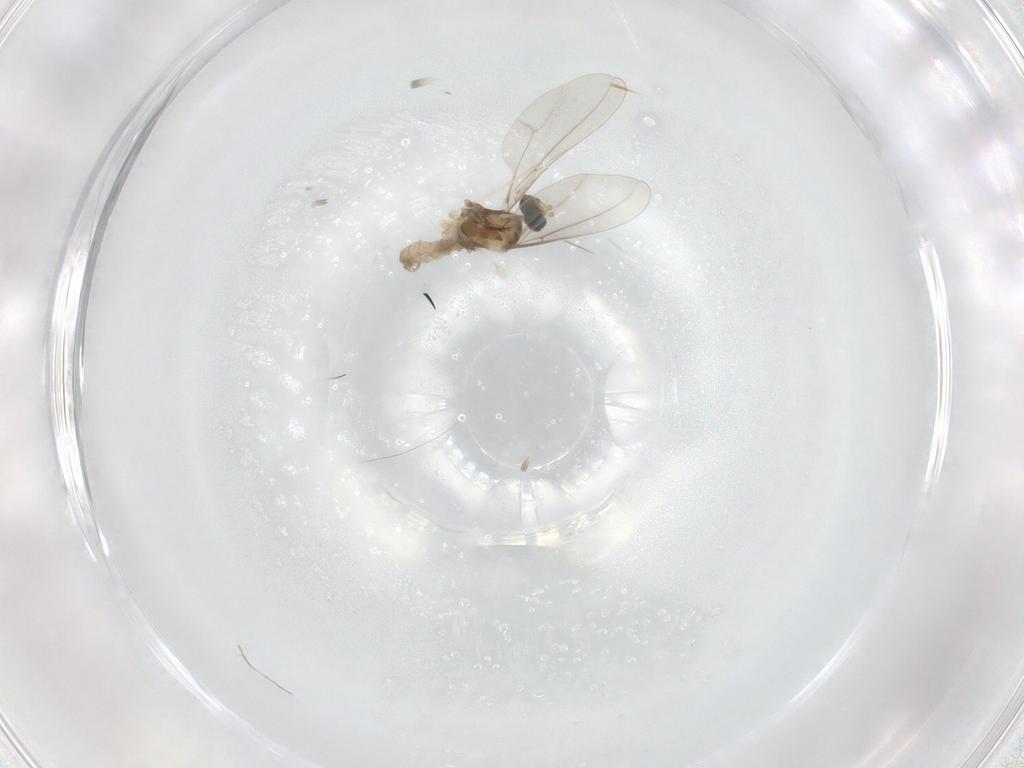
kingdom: Animalia
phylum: Arthropoda
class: Insecta
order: Diptera
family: Cecidomyiidae
